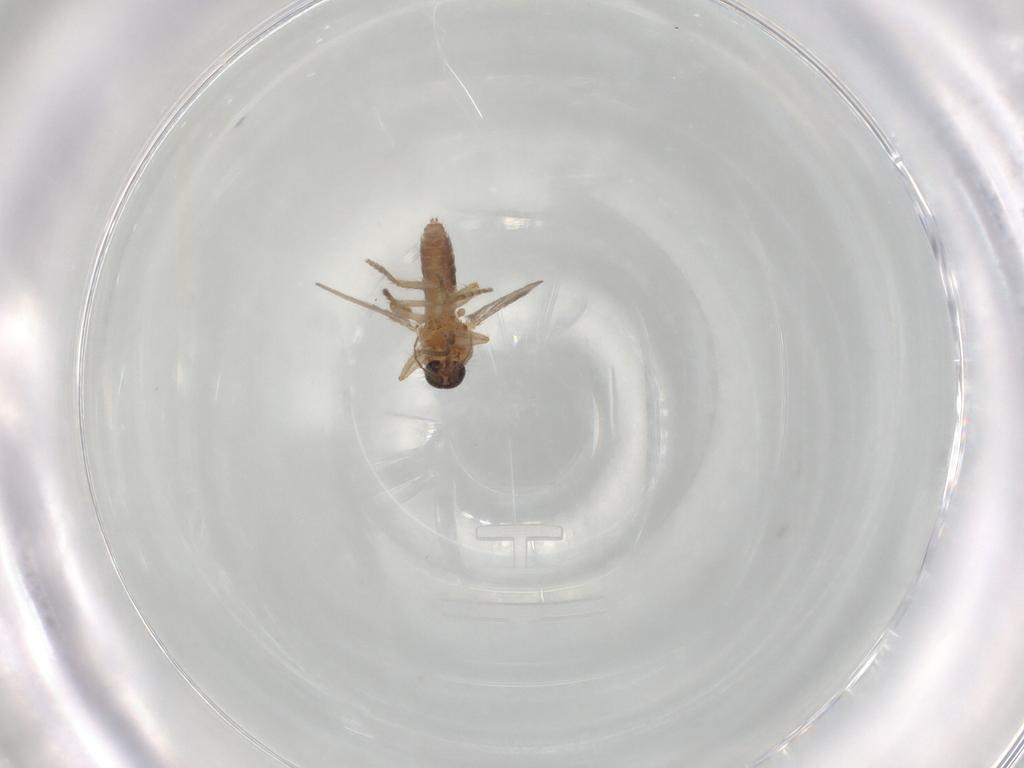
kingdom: Animalia
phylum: Arthropoda
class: Insecta
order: Diptera
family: Ceratopogonidae
